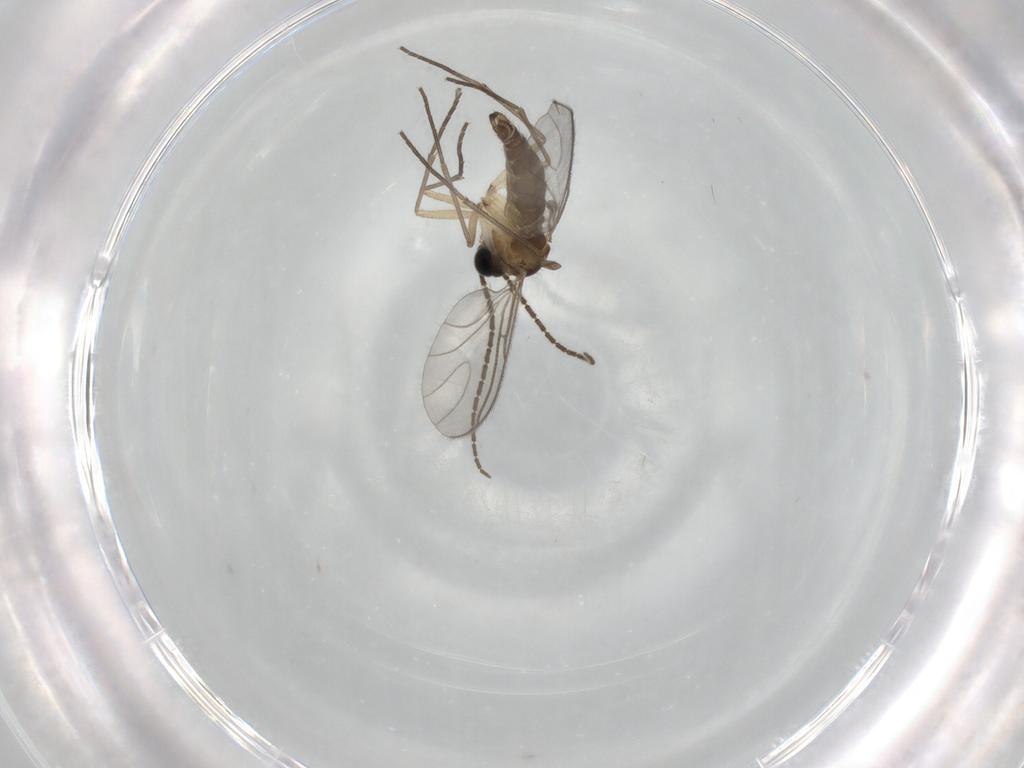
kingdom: Animalia
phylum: Arthropoda
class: Insecta
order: Diptera
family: Sciaridae
